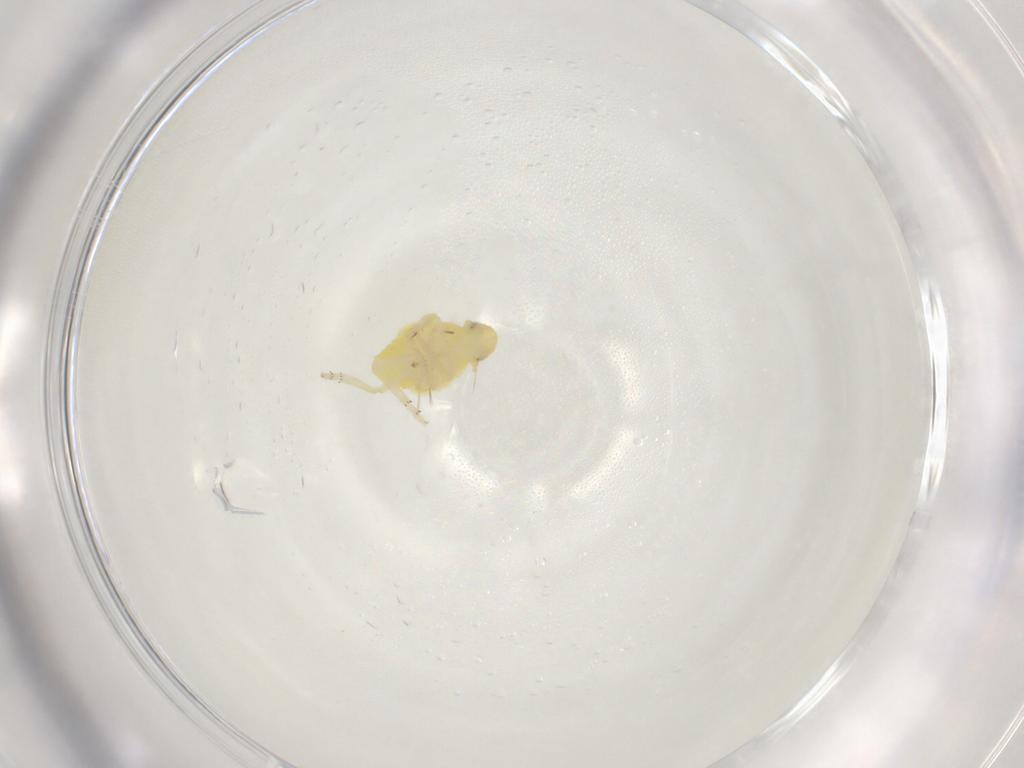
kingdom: Animalia
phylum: Arthropoda
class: Insecta
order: Hemiptera
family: Tropiduchidae
